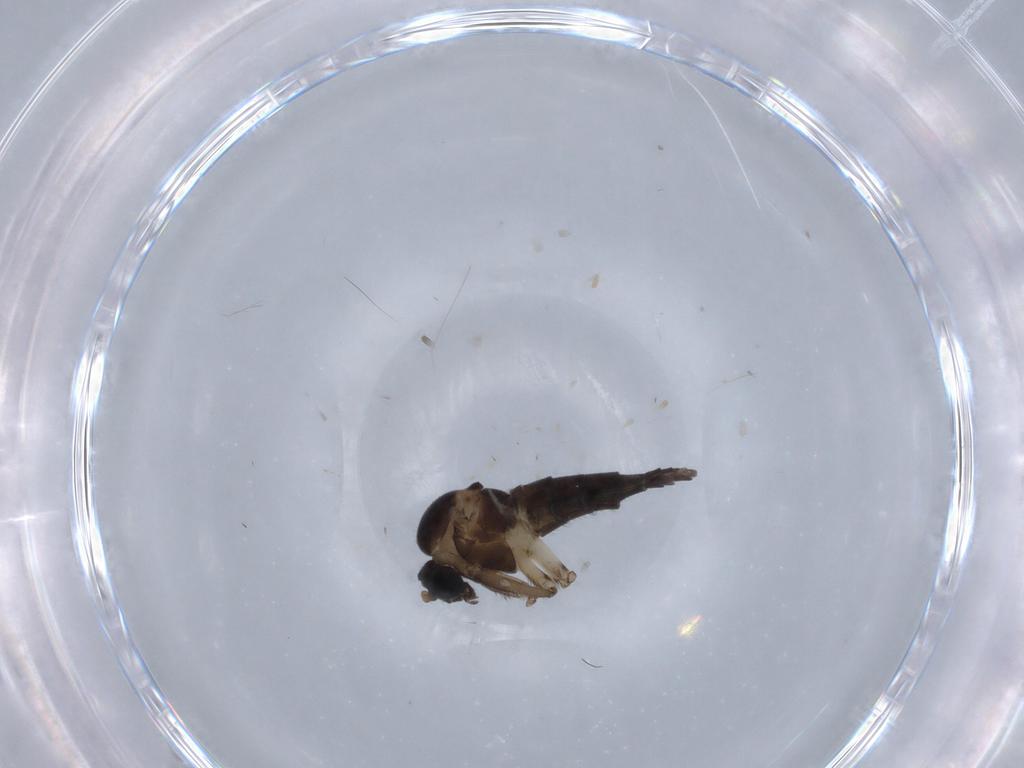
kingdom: Animalia
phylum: Arthropoda
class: Insecta
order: Diptera
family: Sciaridae
